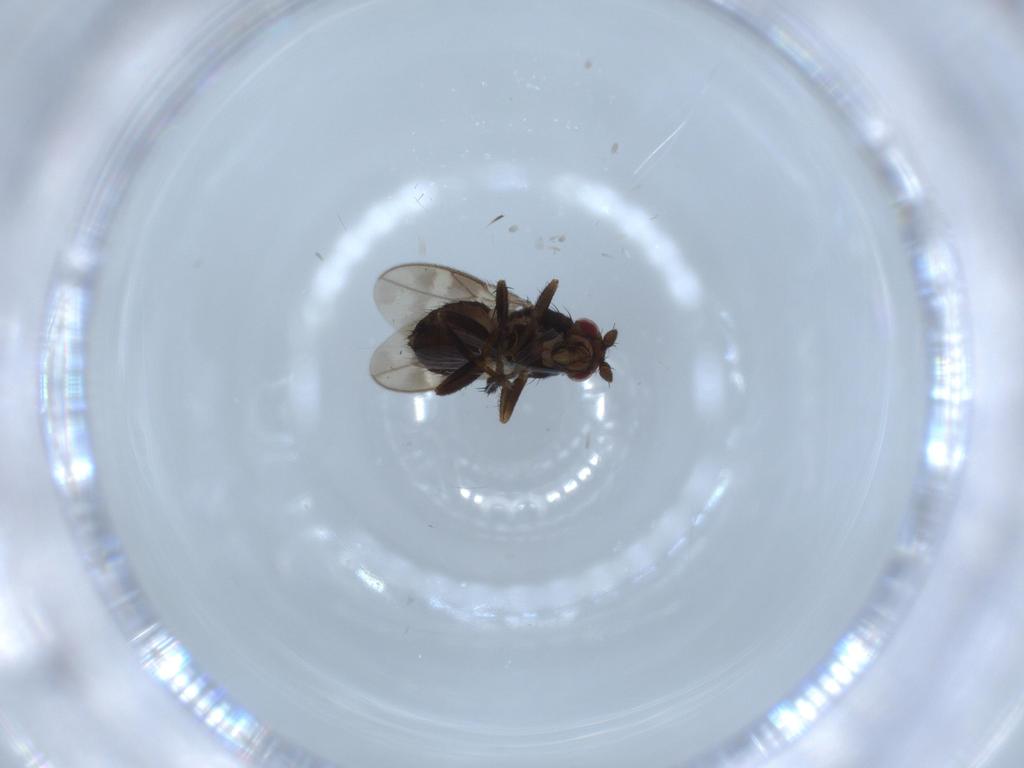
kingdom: Animalia
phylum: Arthropoda
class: Insecta
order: Diptera
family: Sphaeroceridae
